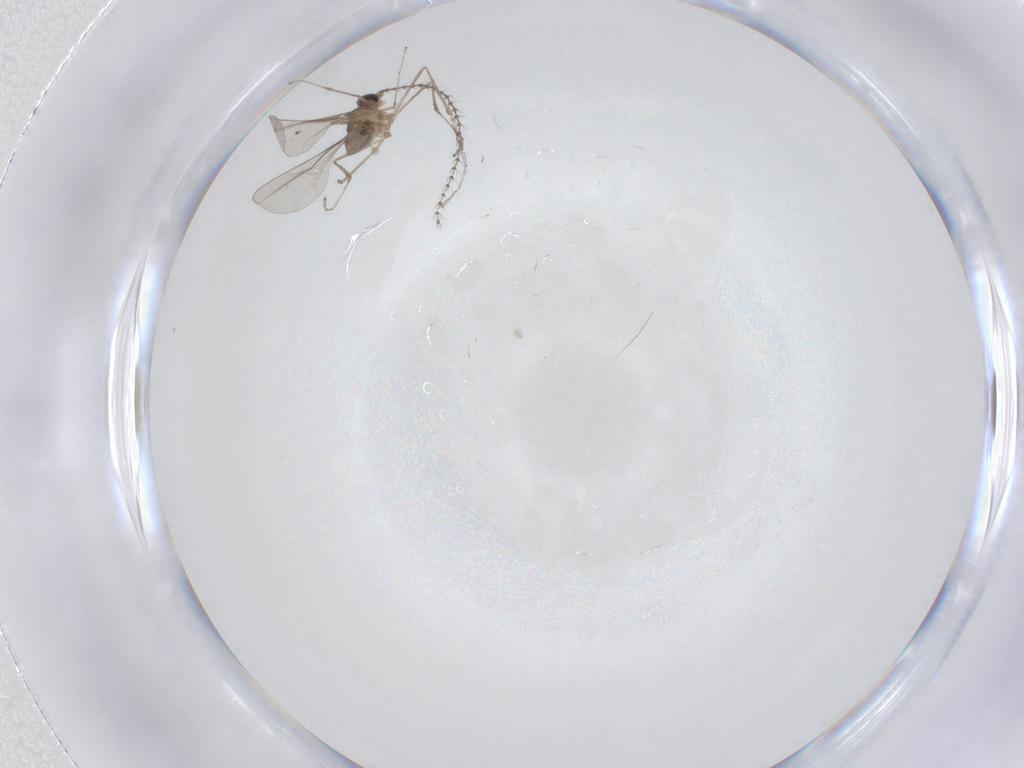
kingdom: Animalia
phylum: Arthropoda
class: Insecta
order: Diptera
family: Cecidomyiidae
